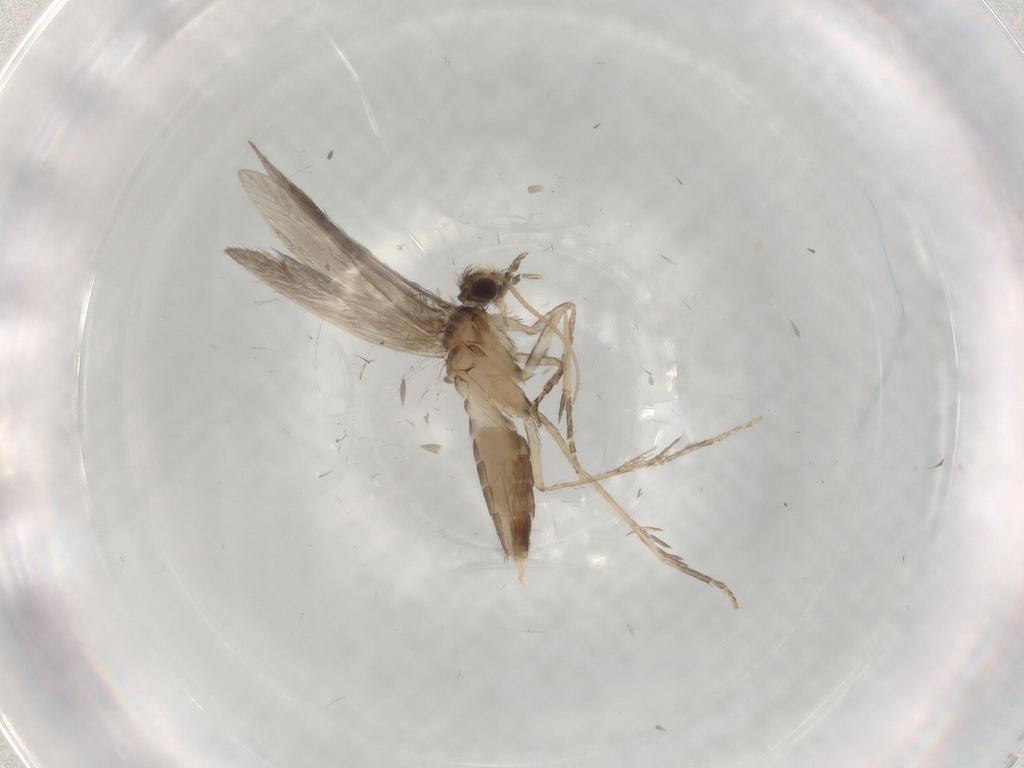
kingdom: Animalia
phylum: Arthropoda
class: Insecta
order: Trichoptera
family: Hydroptilidae
